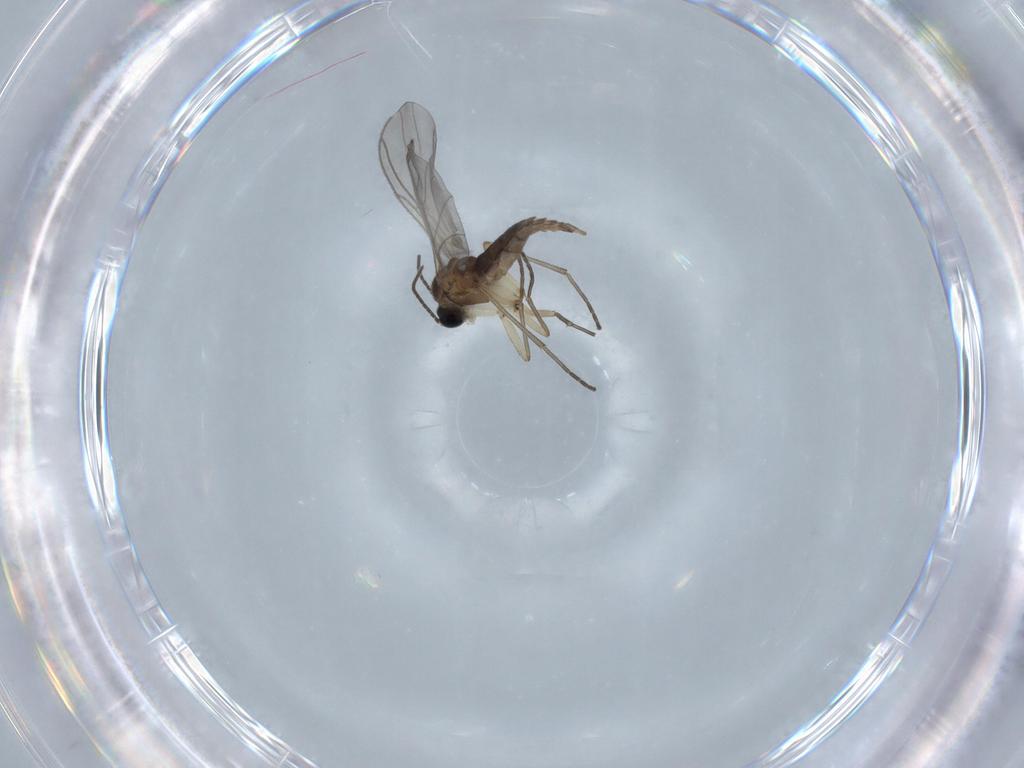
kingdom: Animalia
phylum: Arthropoda
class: Insecta
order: Diptera
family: Sciaridae
